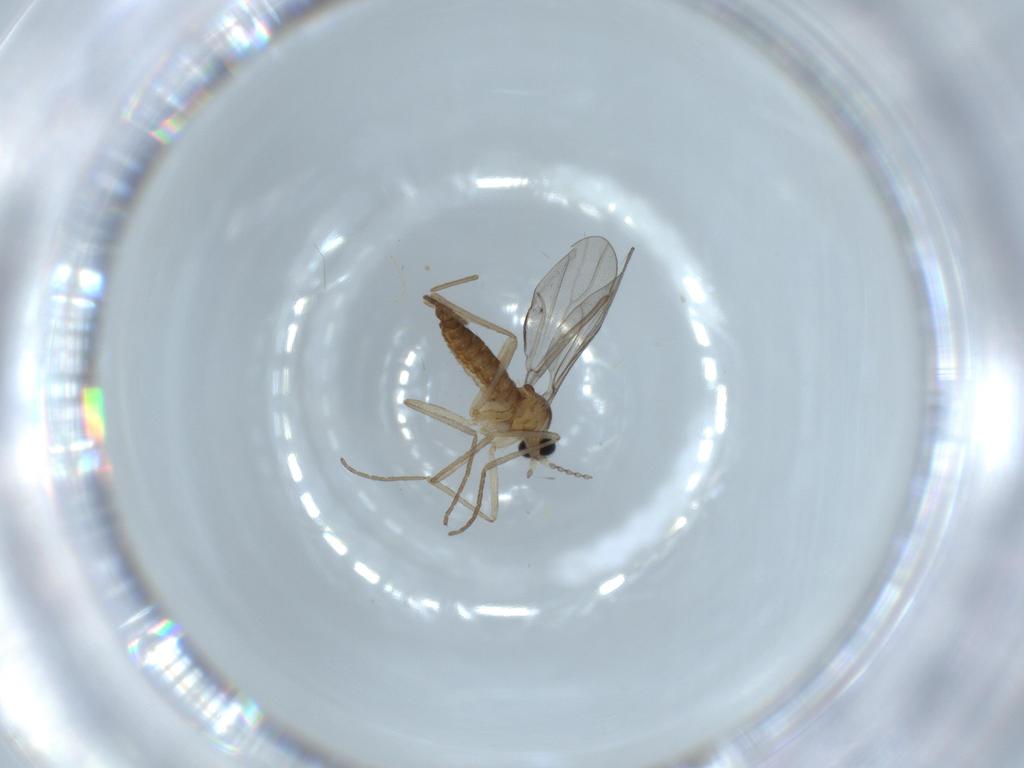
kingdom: Animalia
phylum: Arthropoda
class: Insecta
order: Diptera
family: Cecidomyiidae
